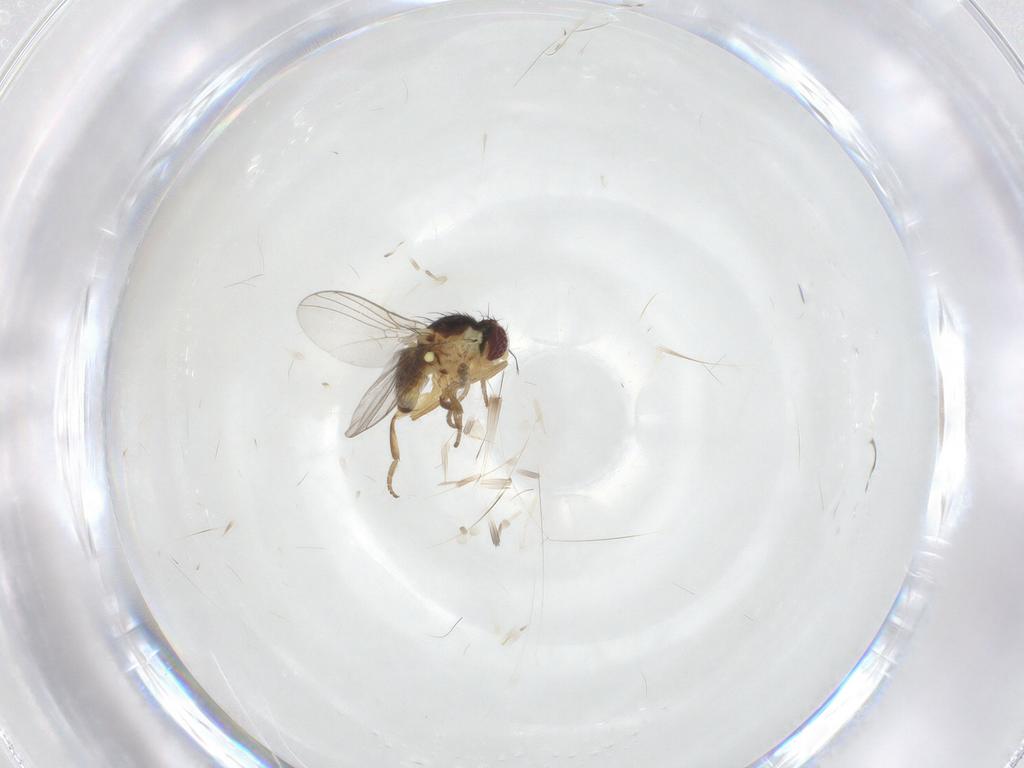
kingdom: Animalia
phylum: Arthropoda
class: Insecta
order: Diptera
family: Agromyzidae
